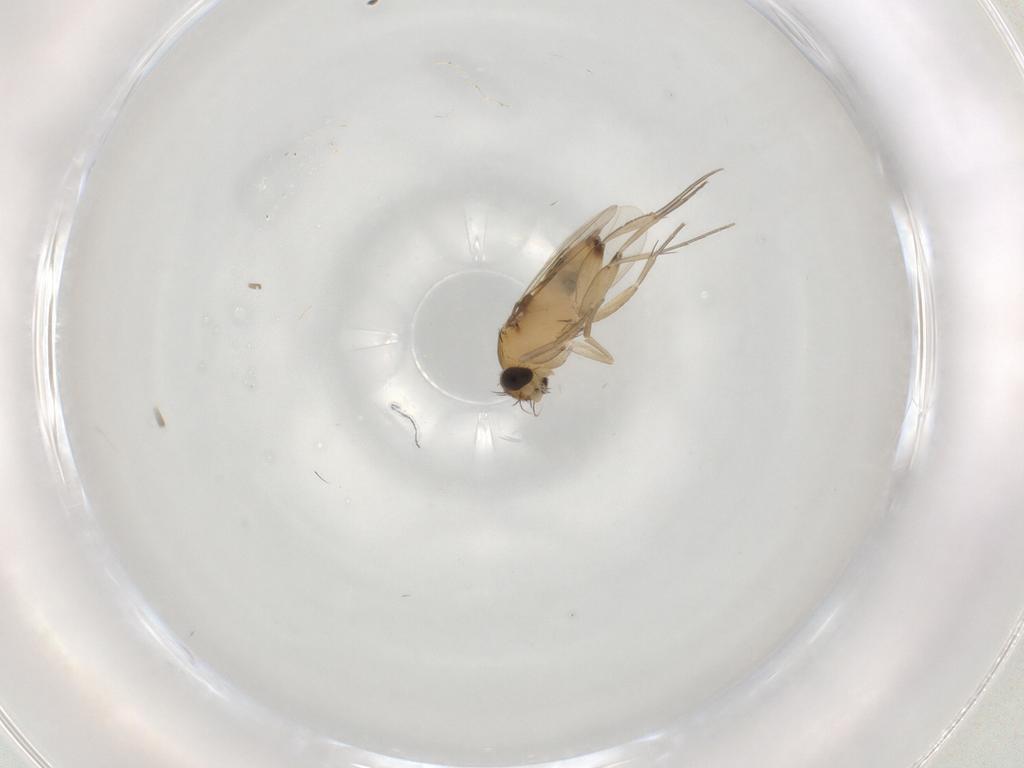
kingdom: Animalia
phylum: Arthropoda
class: Insecta
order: Diptera
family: Phoridae
